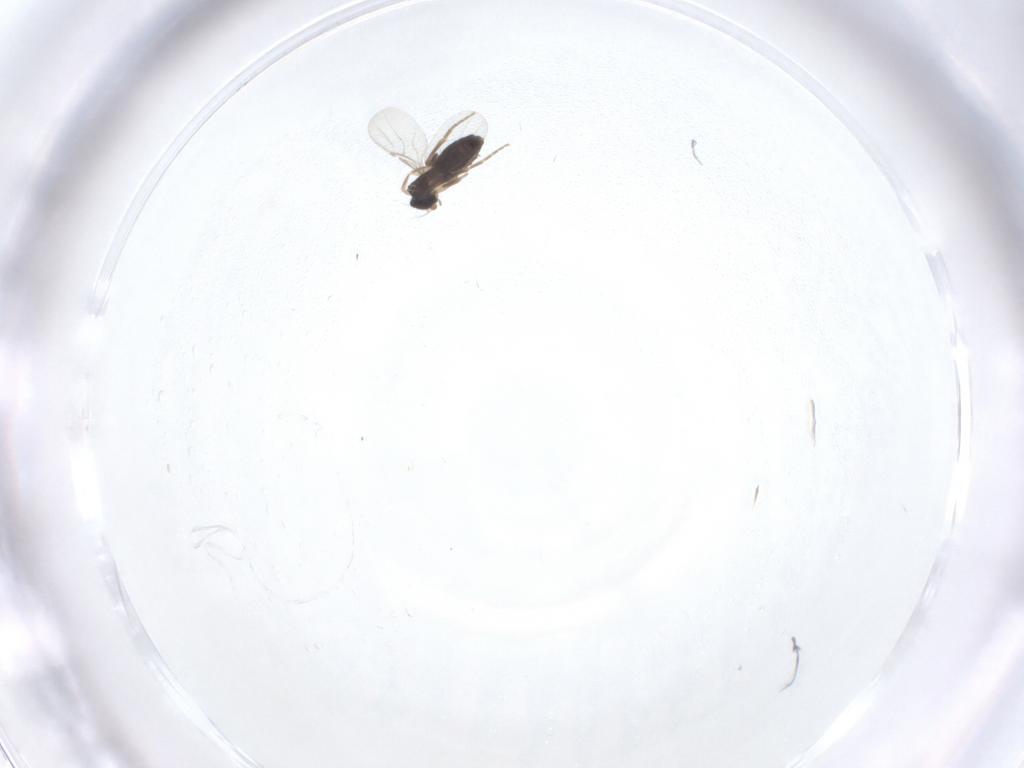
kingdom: Animalia
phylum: Arthropoda
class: Insecta
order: Diptera
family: Phoridae
